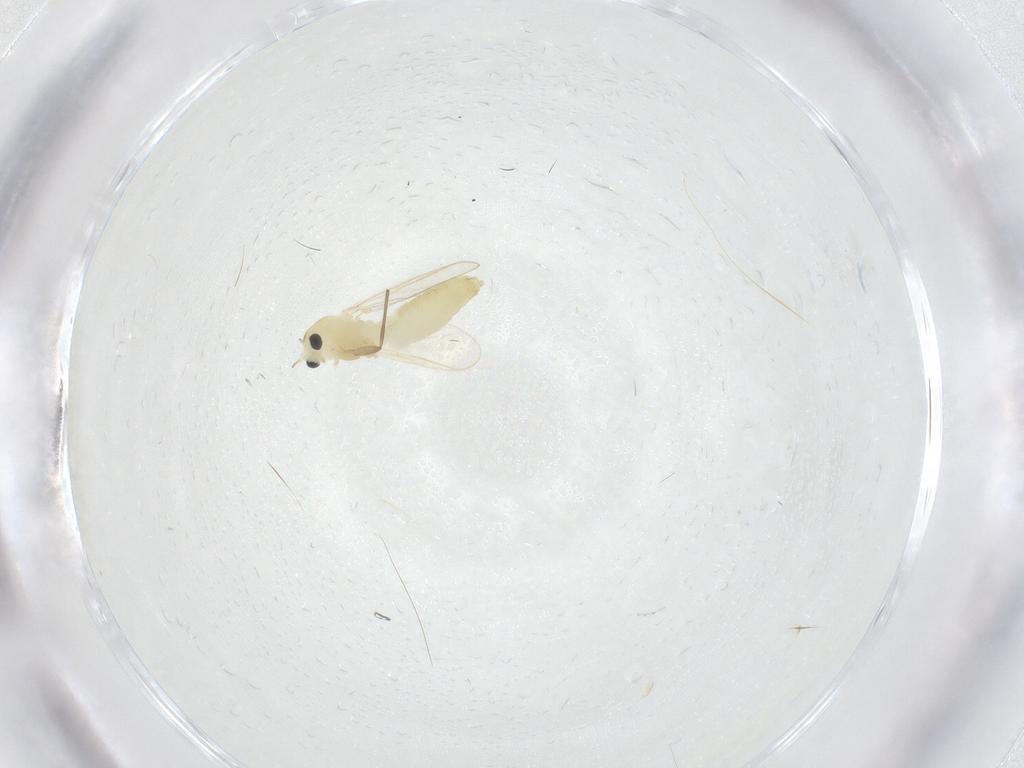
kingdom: Animalia
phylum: Arthropoda
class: Insecta
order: Diptera
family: Chironomidae
